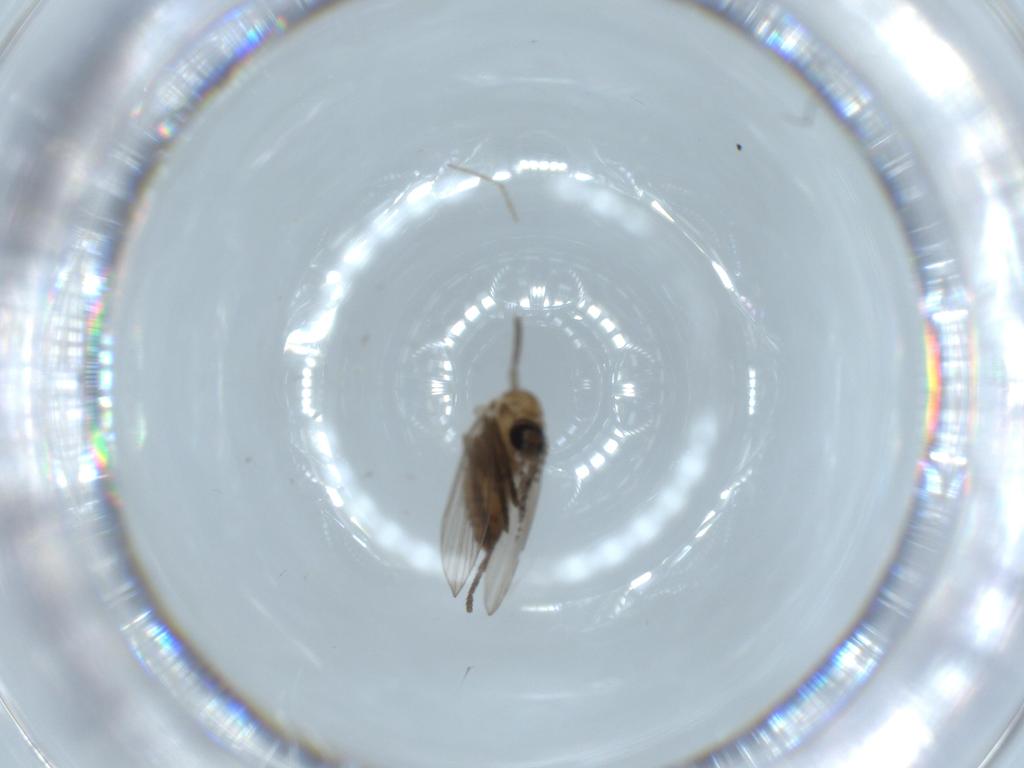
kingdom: Animalia
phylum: Arthropoda
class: Insecta
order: Diptera
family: Psychodidae
